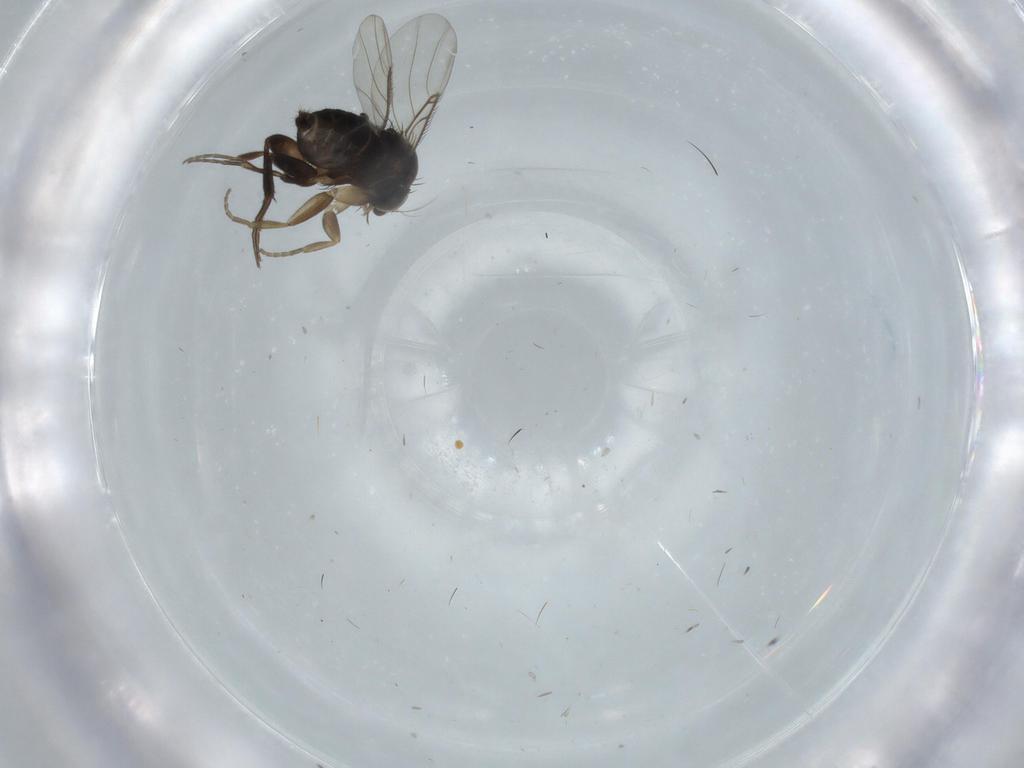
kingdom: Animalia
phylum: Arthropoda
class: Insecta
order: Diptera
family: Phoridae
